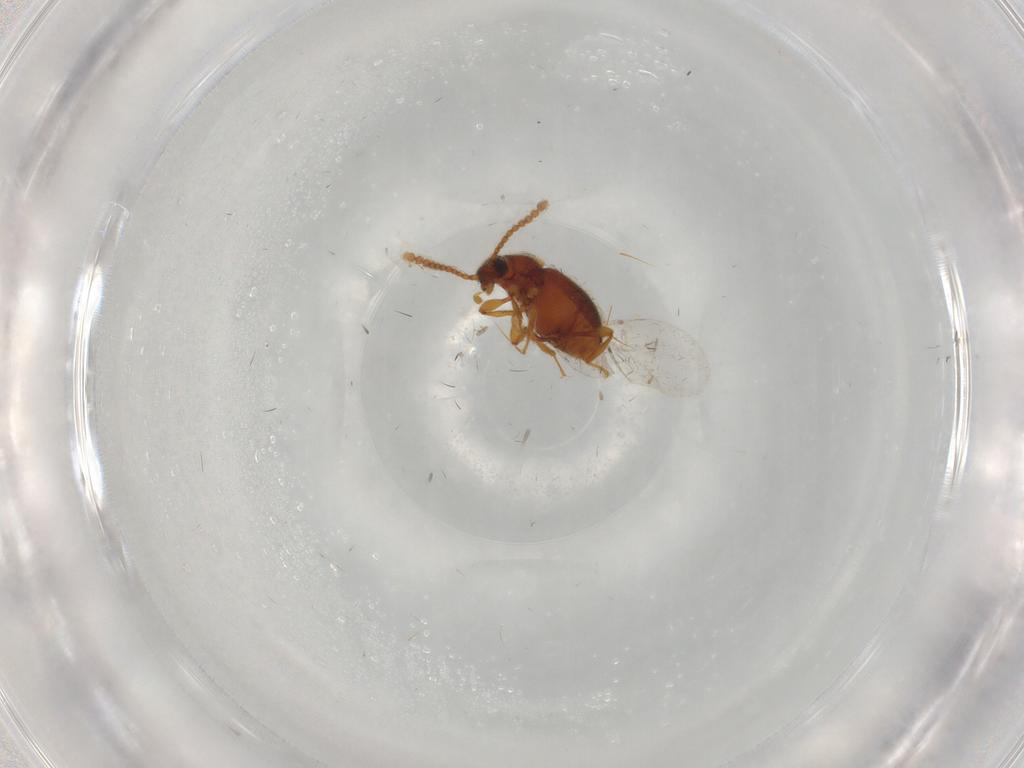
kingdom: Animalia
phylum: Arthropoda
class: Insecta
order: Coleoptera
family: Staphylinidae
